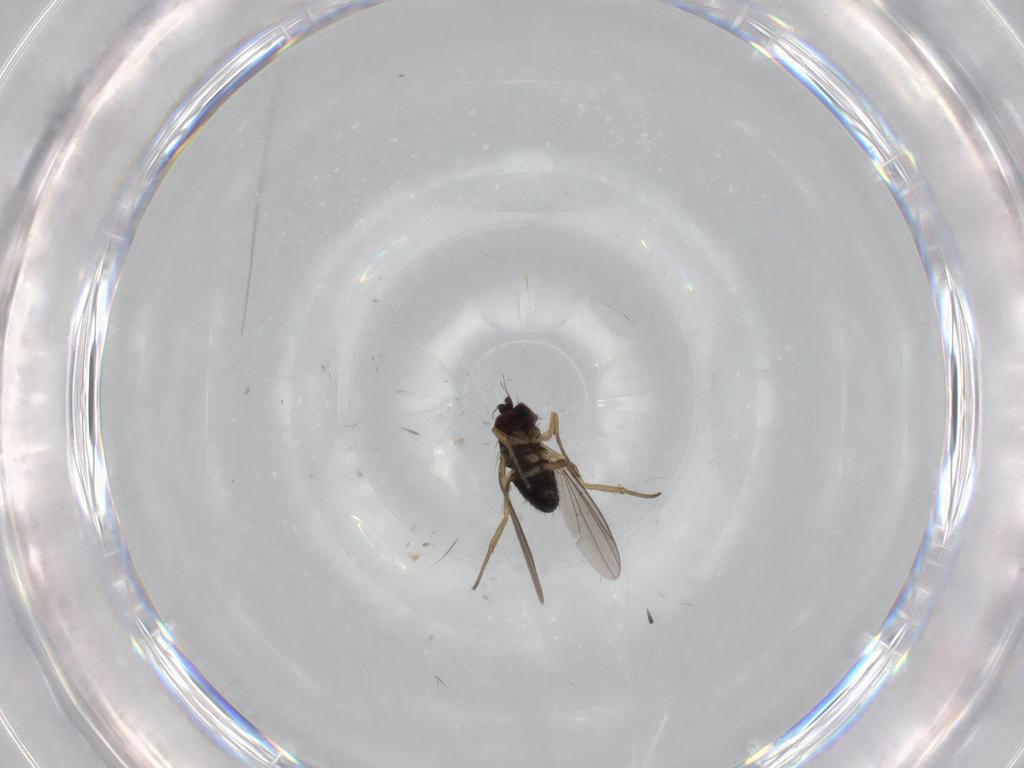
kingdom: Animalia
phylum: Arthropoda
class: Insecta
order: Diptera
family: Dolichopodidae
